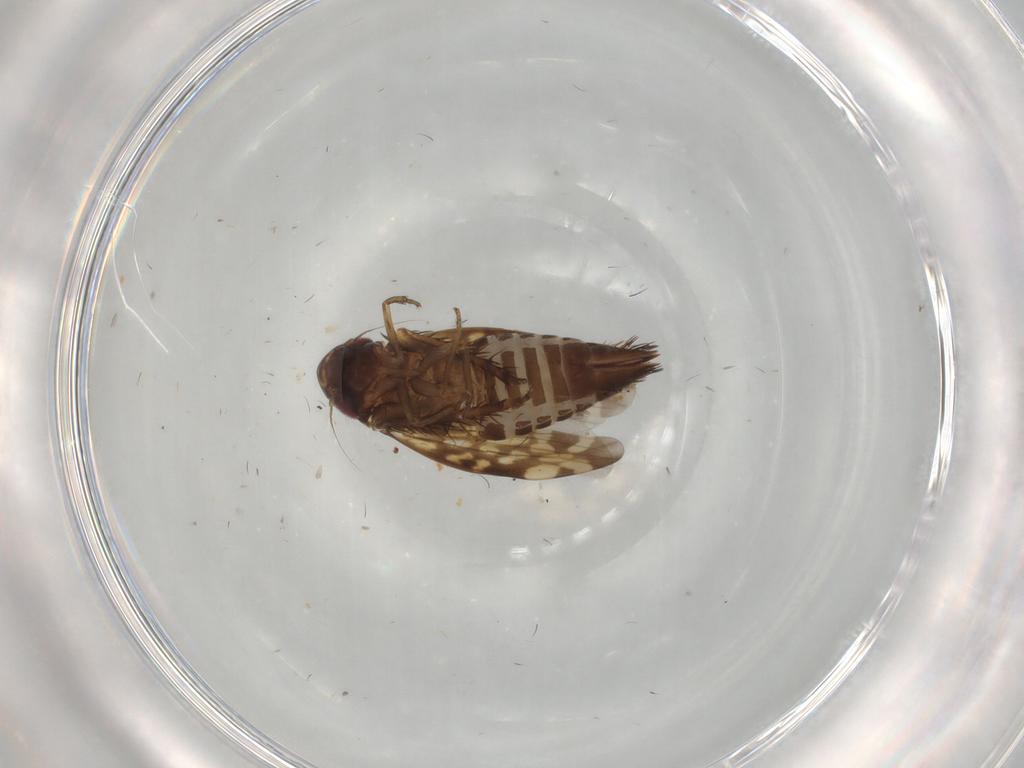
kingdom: Animalia
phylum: Arthropoda
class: Insecta
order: Hemiptera
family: Cicadellidae
